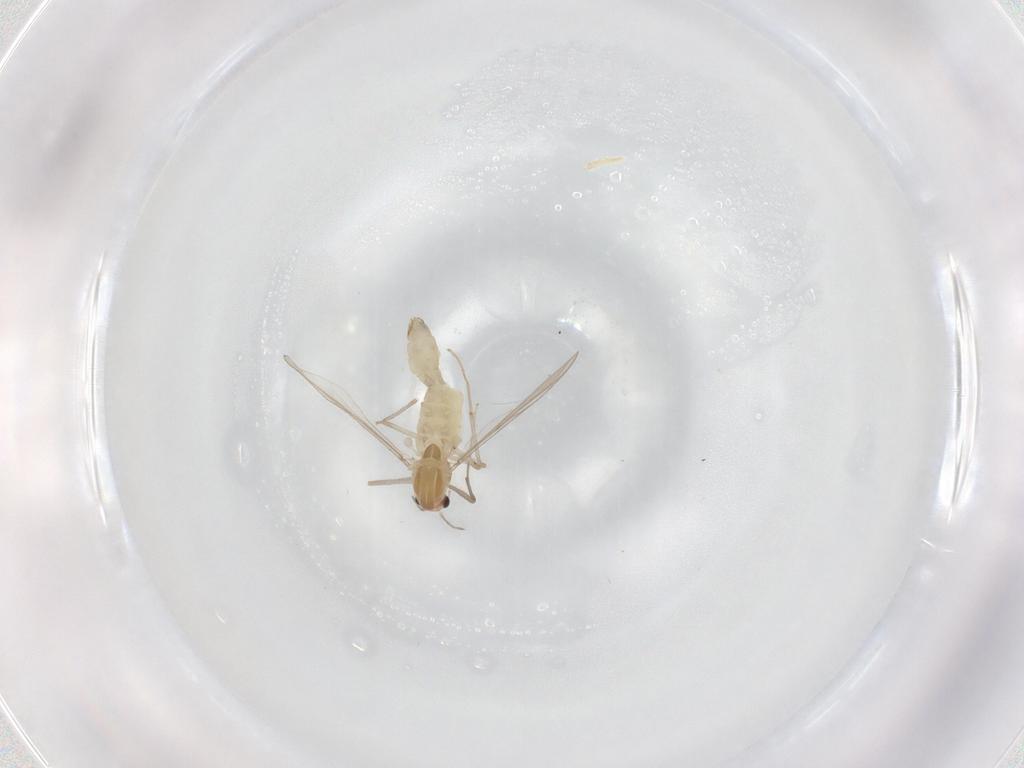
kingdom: Animalia
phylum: Arthropoda
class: Insecta
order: Diptera
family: Chironomidae
